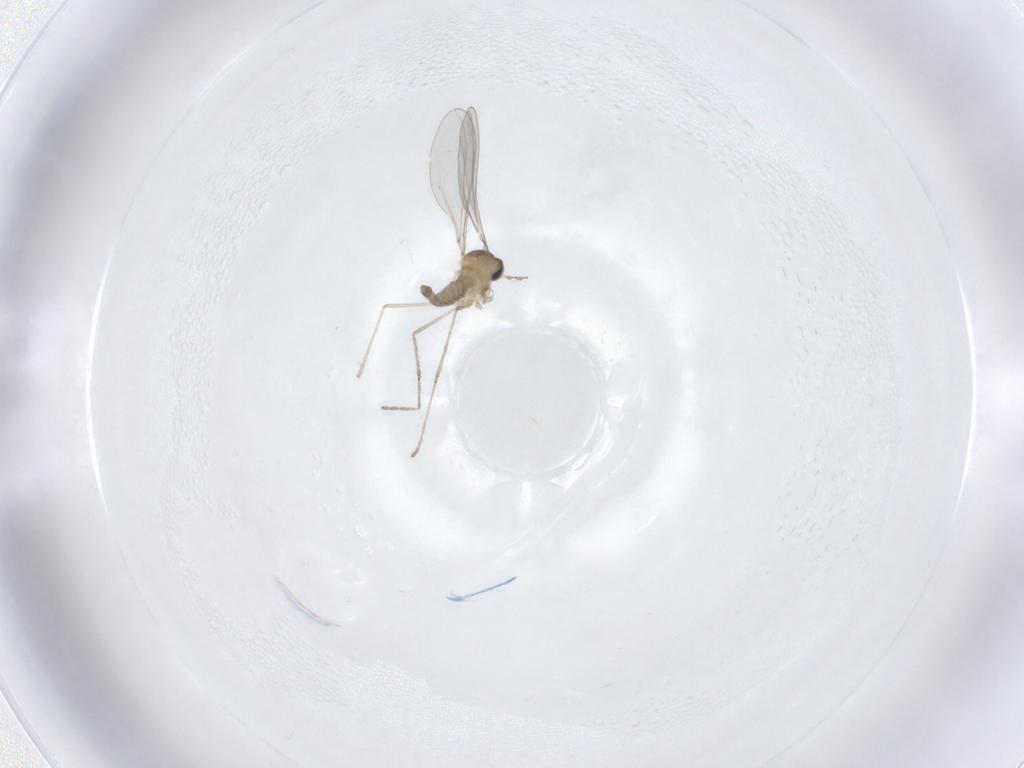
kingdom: Animalia
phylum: Arthropoda
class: Insecta
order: Diptera
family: Cecidomyiidae
